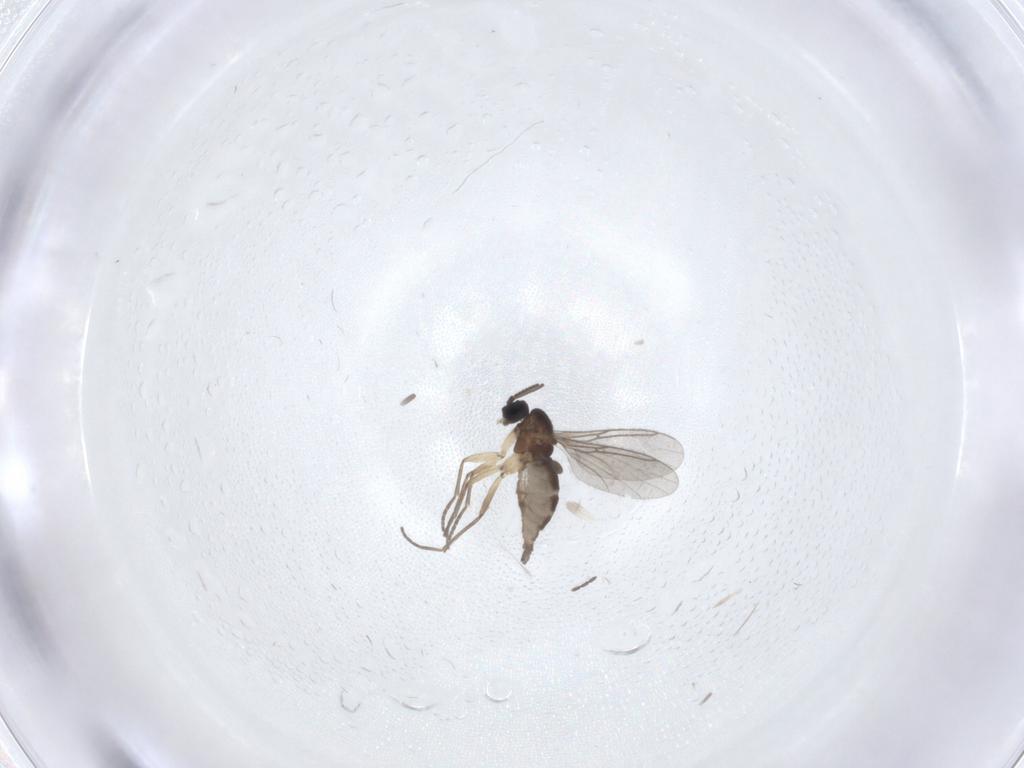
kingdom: Animalia
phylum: Arthropoda
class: Insecta
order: Diptera
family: Sciaridae
